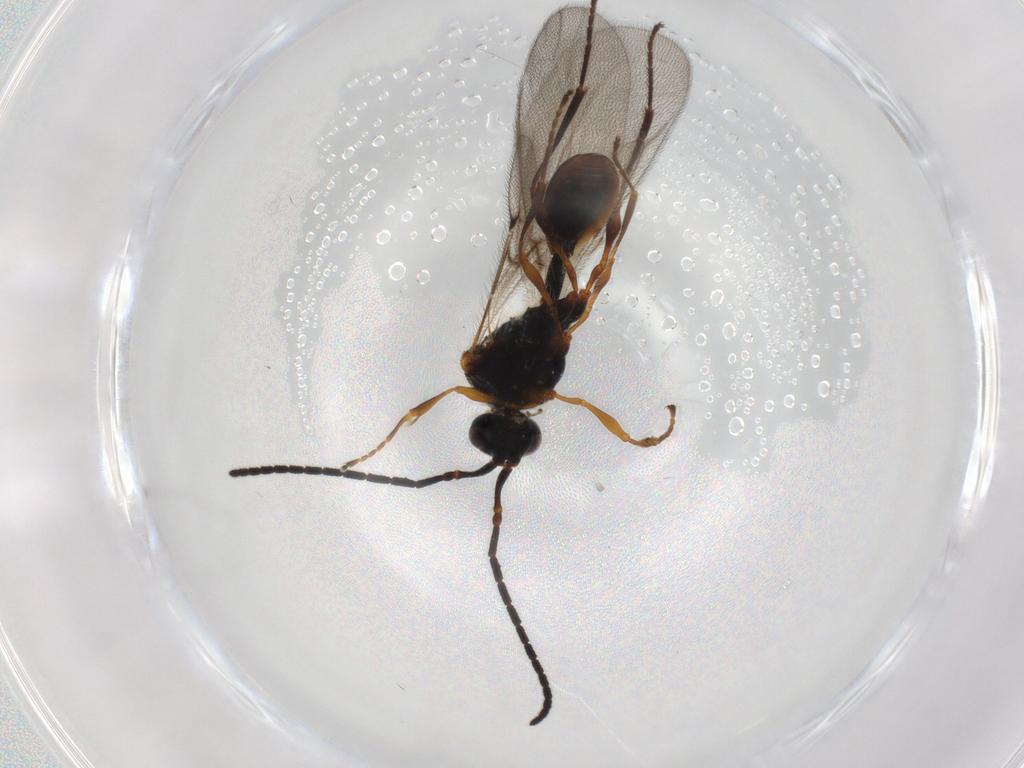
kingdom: Animalia
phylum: Arthropoda
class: Insecta
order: Hymenoptera
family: Diapriidae
